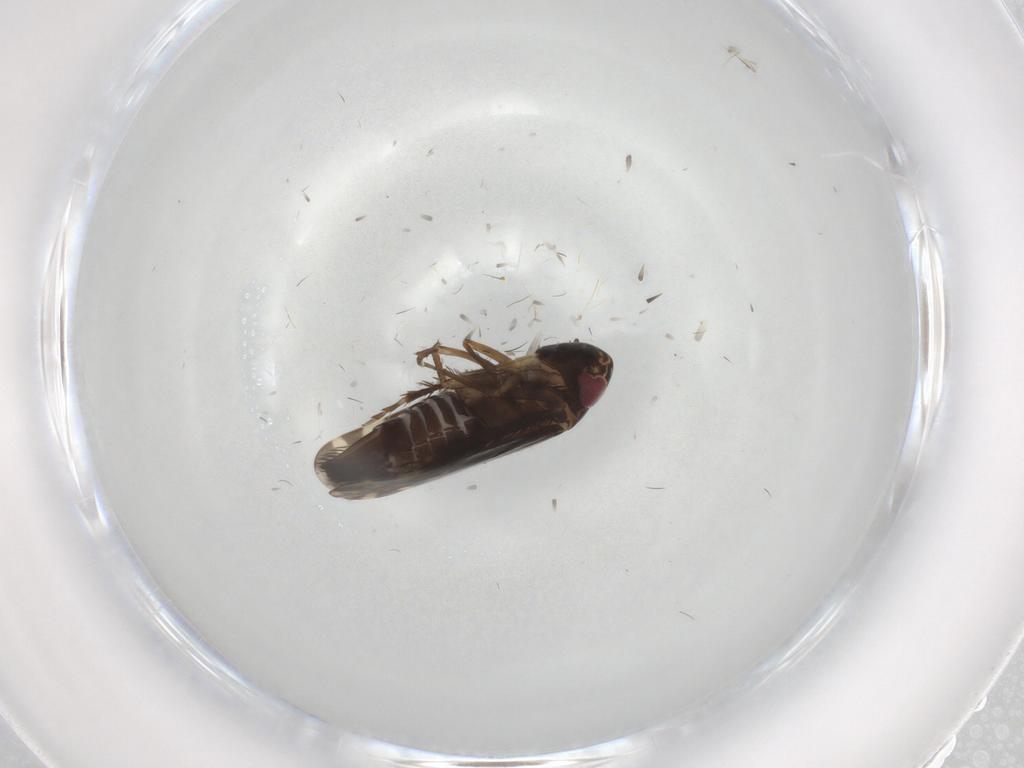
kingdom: Animalia
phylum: Arthropoda
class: Insecta
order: Hemiptera
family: Cicadellidae
